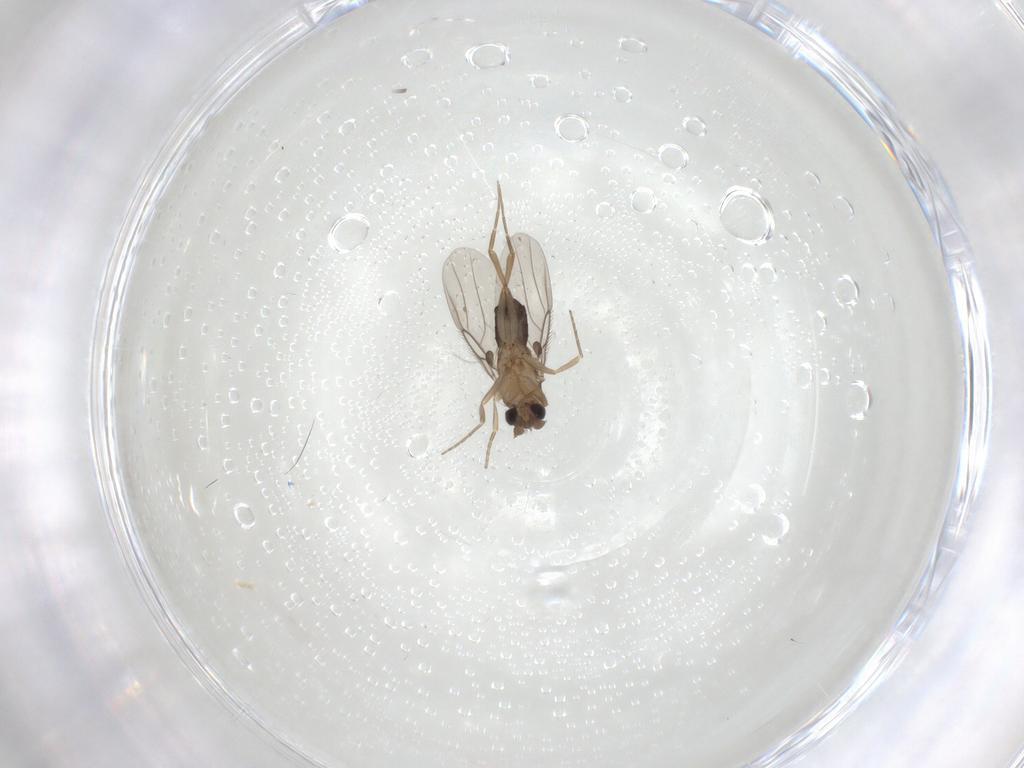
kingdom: Animalia
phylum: Arthropoda
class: Insecta
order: Diptera
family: Phoridae
